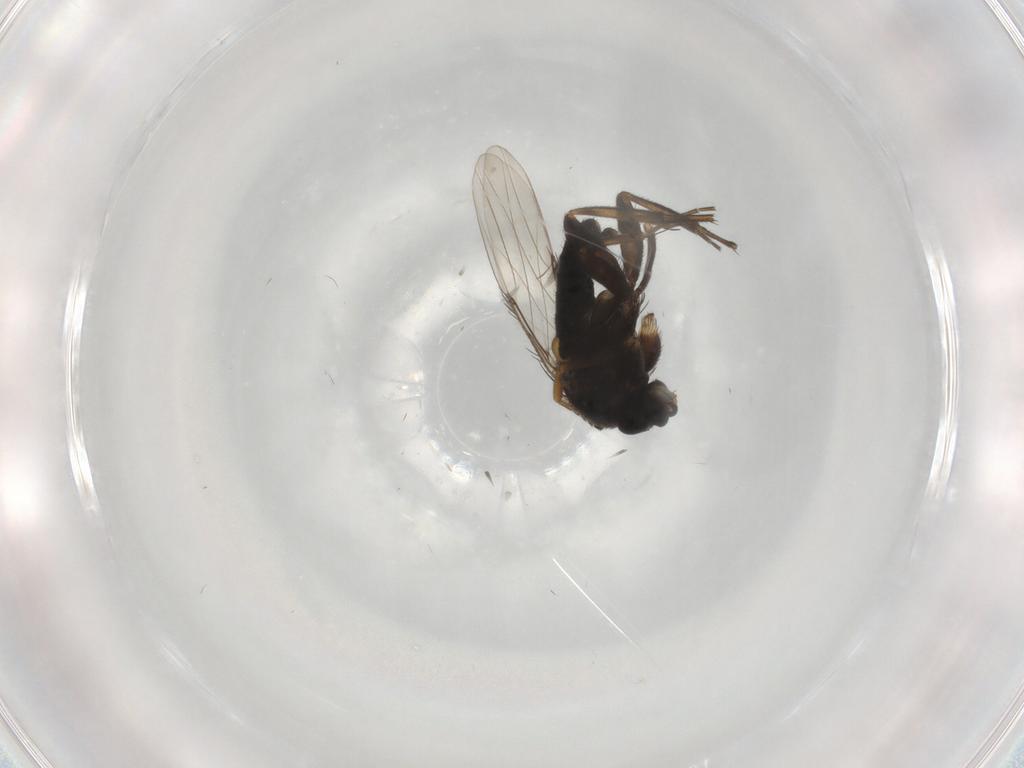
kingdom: Animalia
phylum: Arthropoda
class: Insecta
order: Diptera
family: Phoridae
